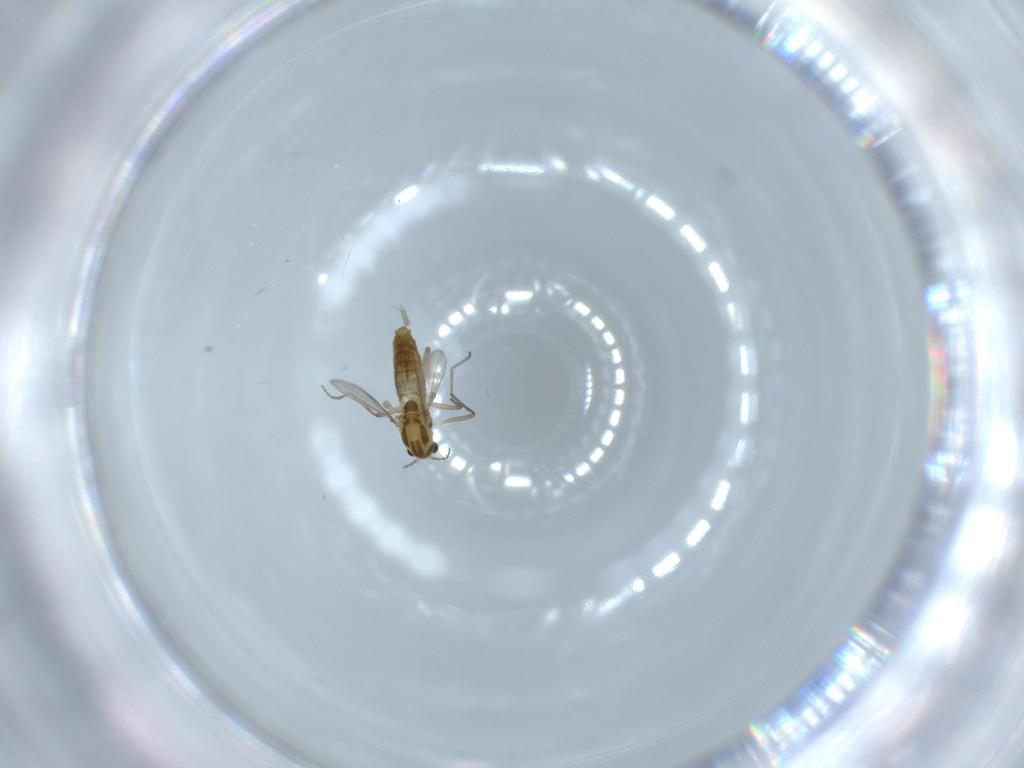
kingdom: Animalia
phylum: Arthropoda
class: Insecta
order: Diptera
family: Chironomidae
